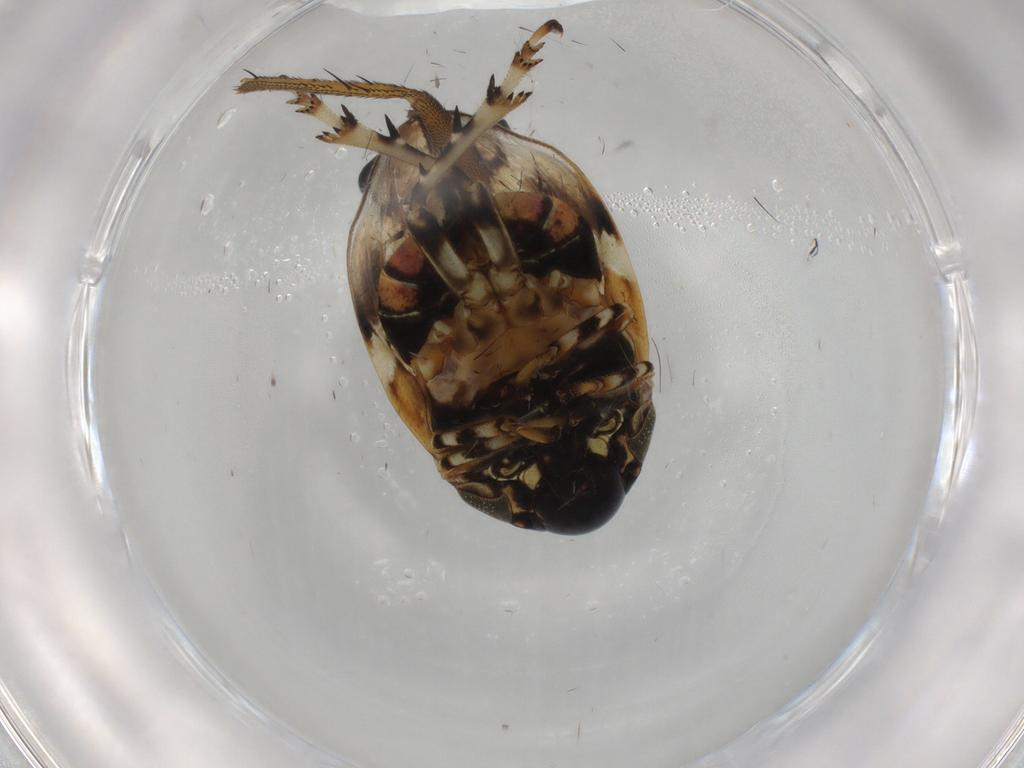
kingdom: Animalia
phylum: Arthropoda
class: Insecta
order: Hemiptera
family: Clastopteridae
